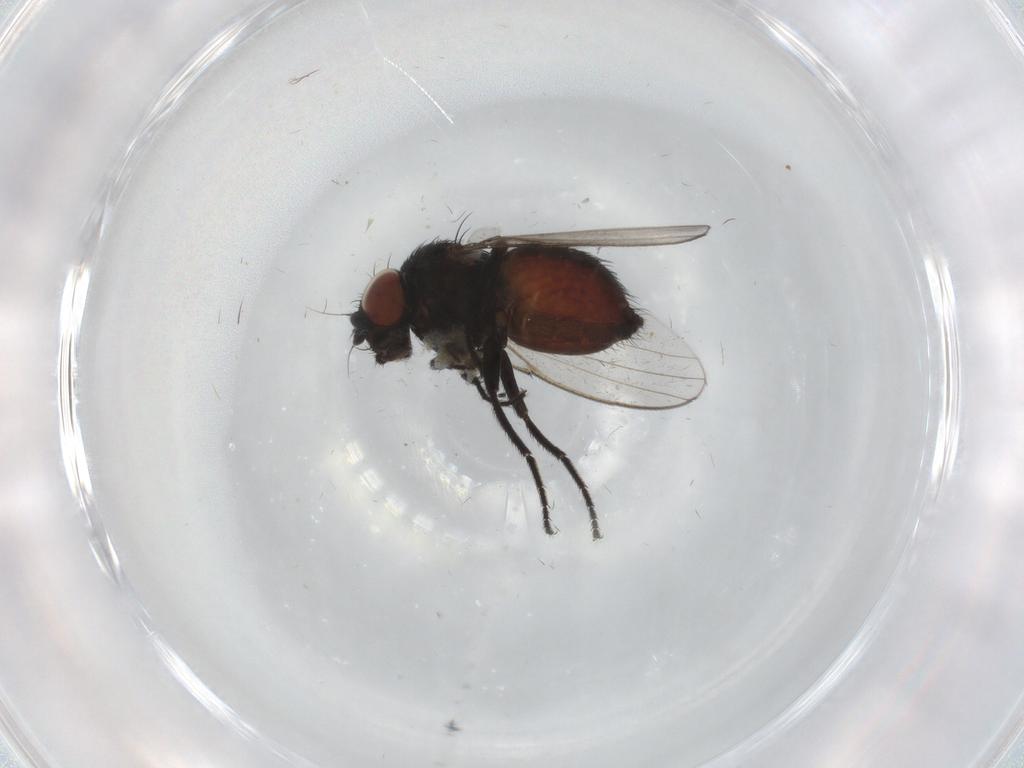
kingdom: Animalia
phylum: Arthropoda
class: Insecta
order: Diptera
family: Milichiidae
